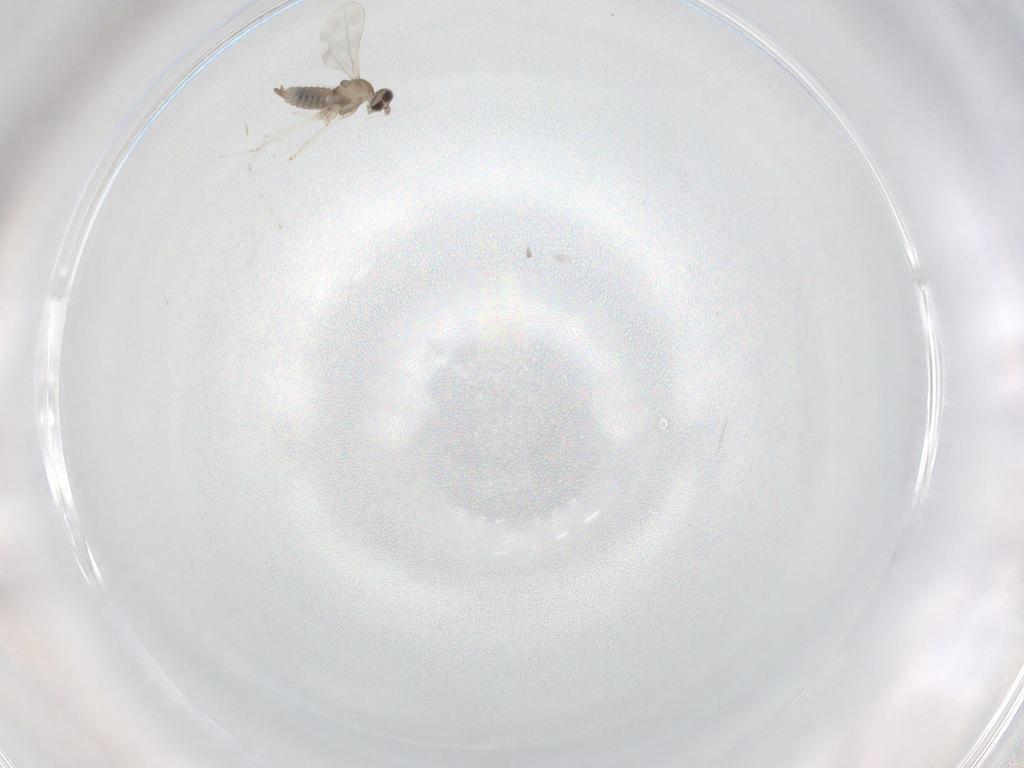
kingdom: Animalia
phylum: Arthropoda
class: Insecta
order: Diptera
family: Cecidomyiidae
